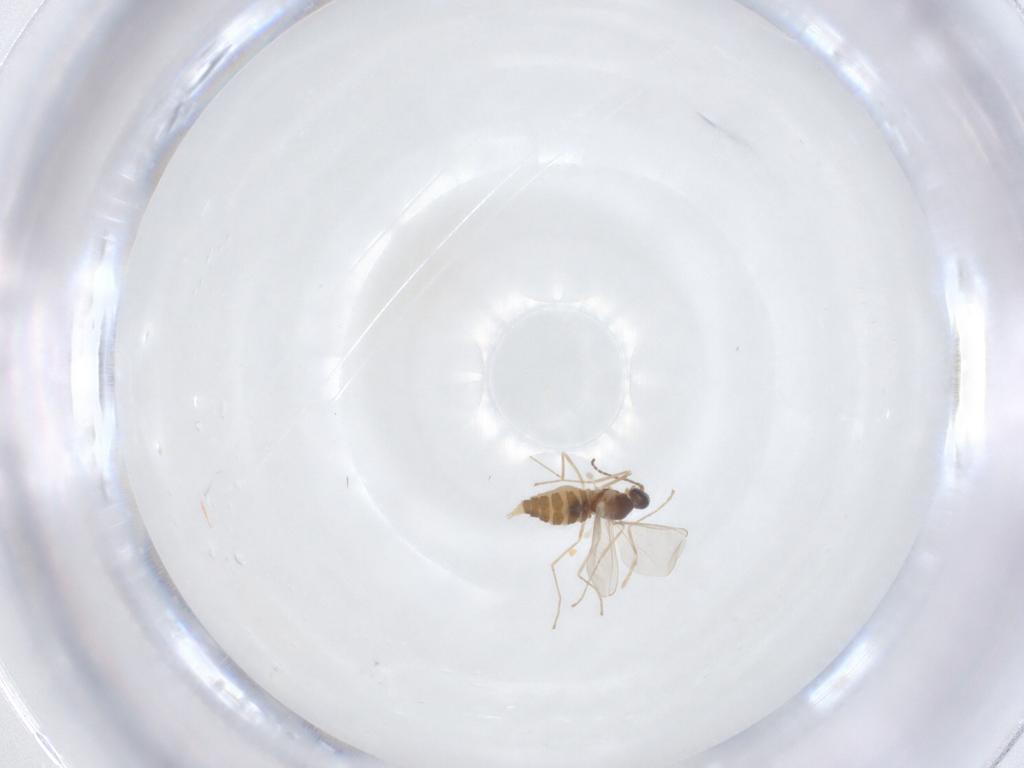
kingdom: Animalia
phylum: Arthropoda
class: Insecta
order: Diptera
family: Cecidomyiidae
